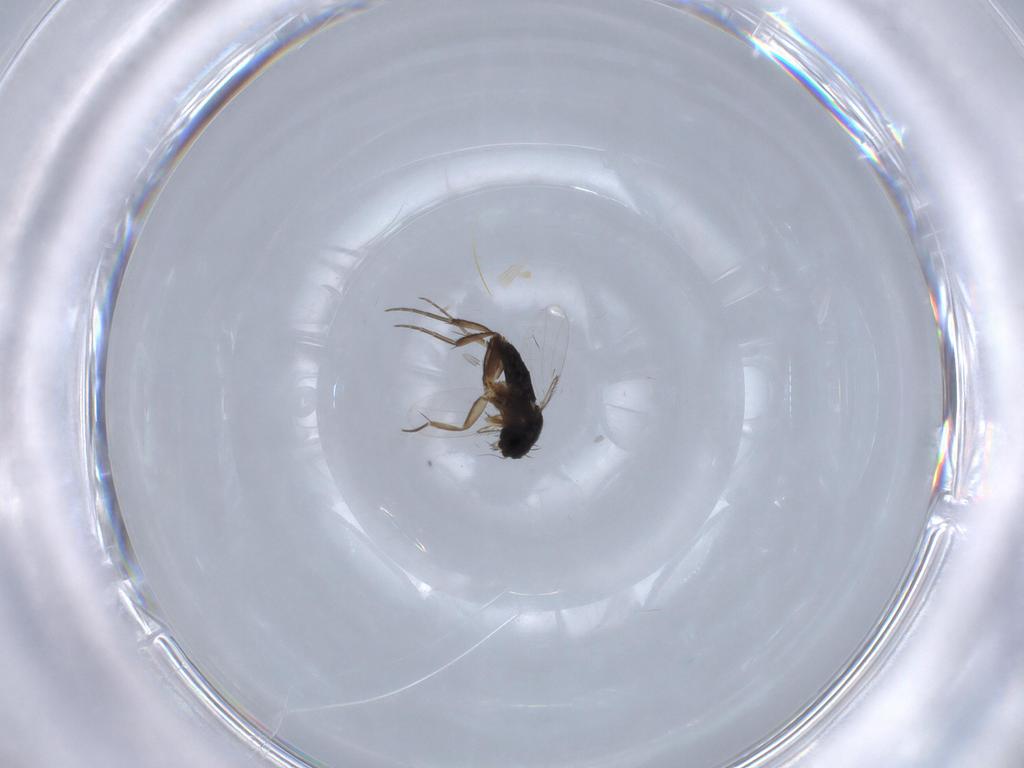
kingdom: Animalia
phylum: Arthropoda
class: Insecta
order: Diptera
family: Phoridae
